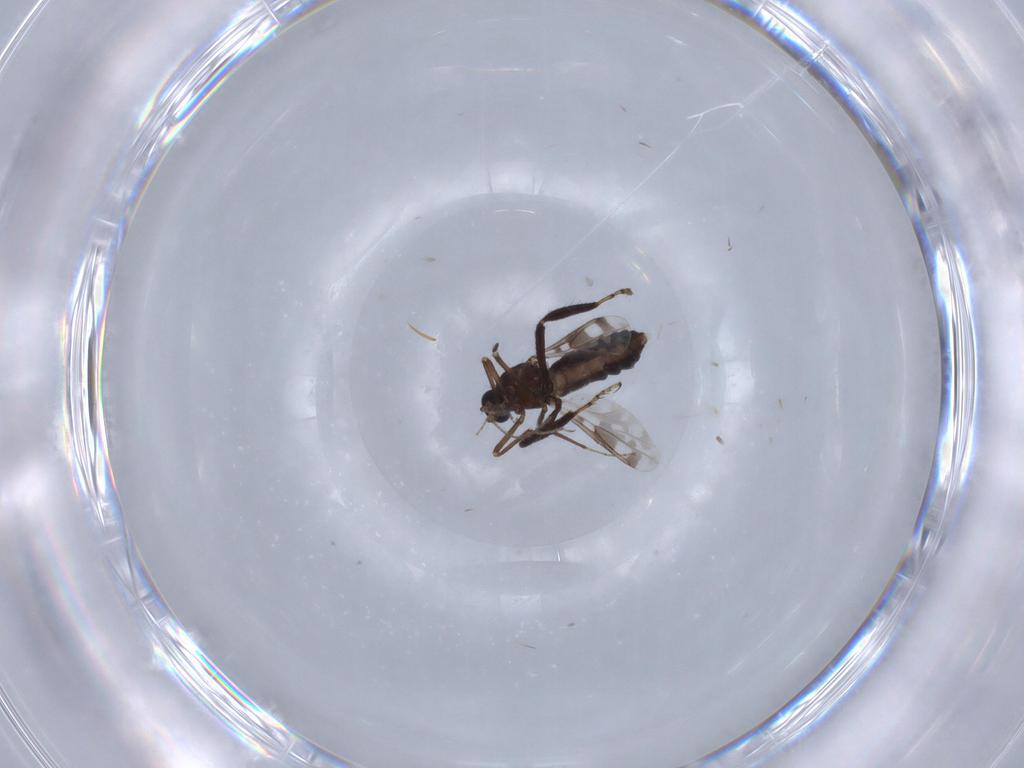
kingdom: Animalia
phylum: Arthropoda
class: Insecta
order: Diptera
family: Ceratopogonidae
